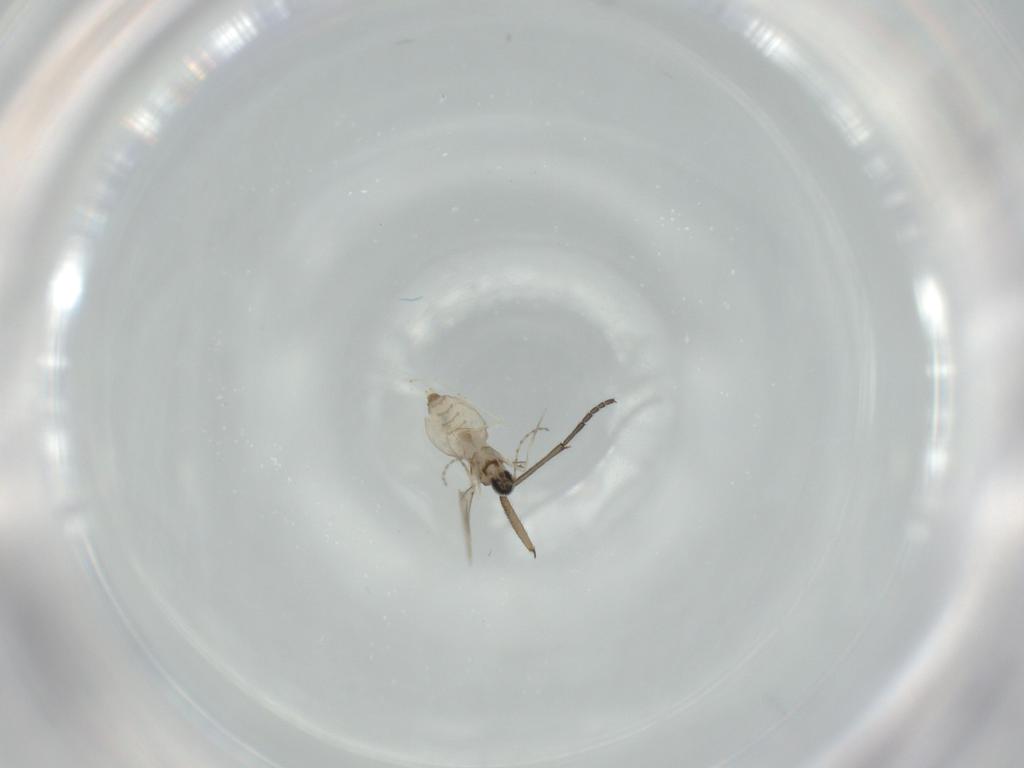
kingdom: Animalia
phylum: Arthropoda
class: Insecta
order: Diptera
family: Cecidomyiidae
